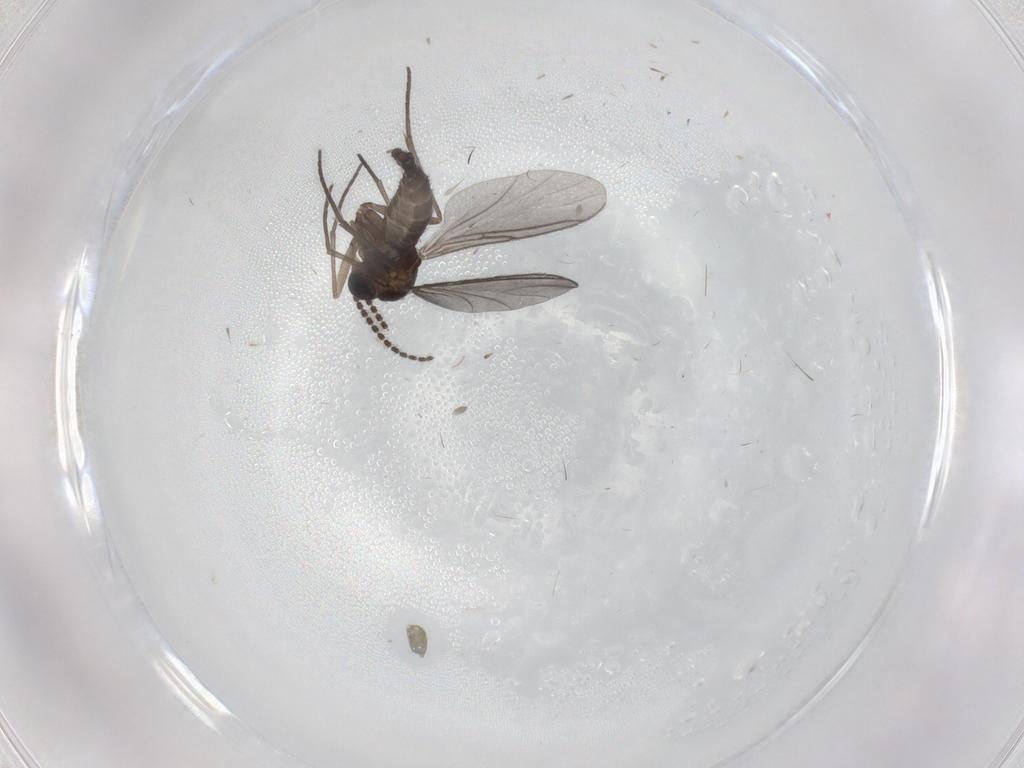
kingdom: Animalia
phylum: Arthropoda
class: Insecta
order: Diptera
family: Sciaridae
